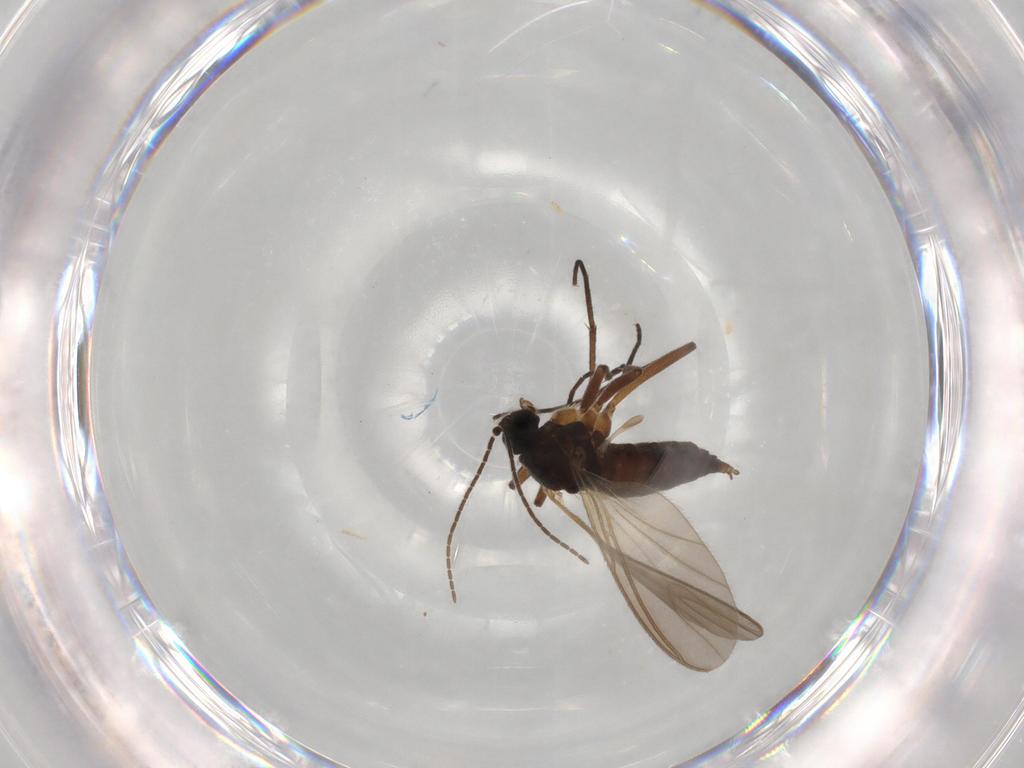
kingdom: Animalia
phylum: Arthropoda
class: Insecta
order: Diptera
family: Sciaridae
